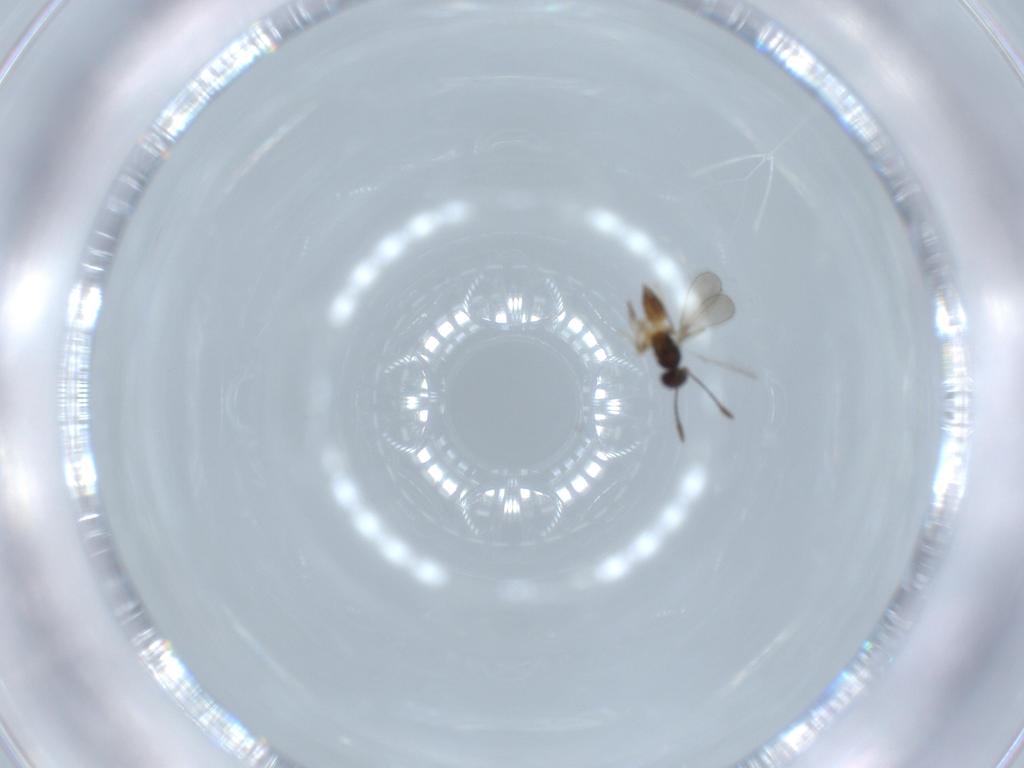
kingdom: Animalia
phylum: Arthropoda
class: Insecta
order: Hymenoptera
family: Mymaridae
